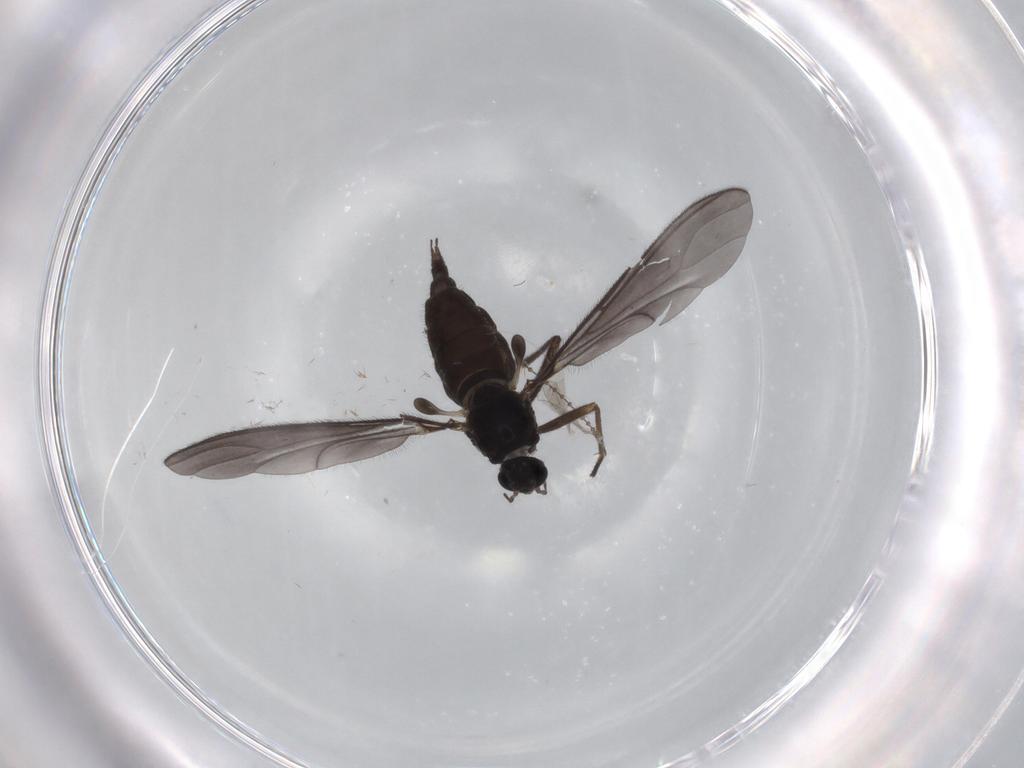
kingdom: Animalia
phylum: Arthropoda
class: Insecta
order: Diptera
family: Sciaridae
